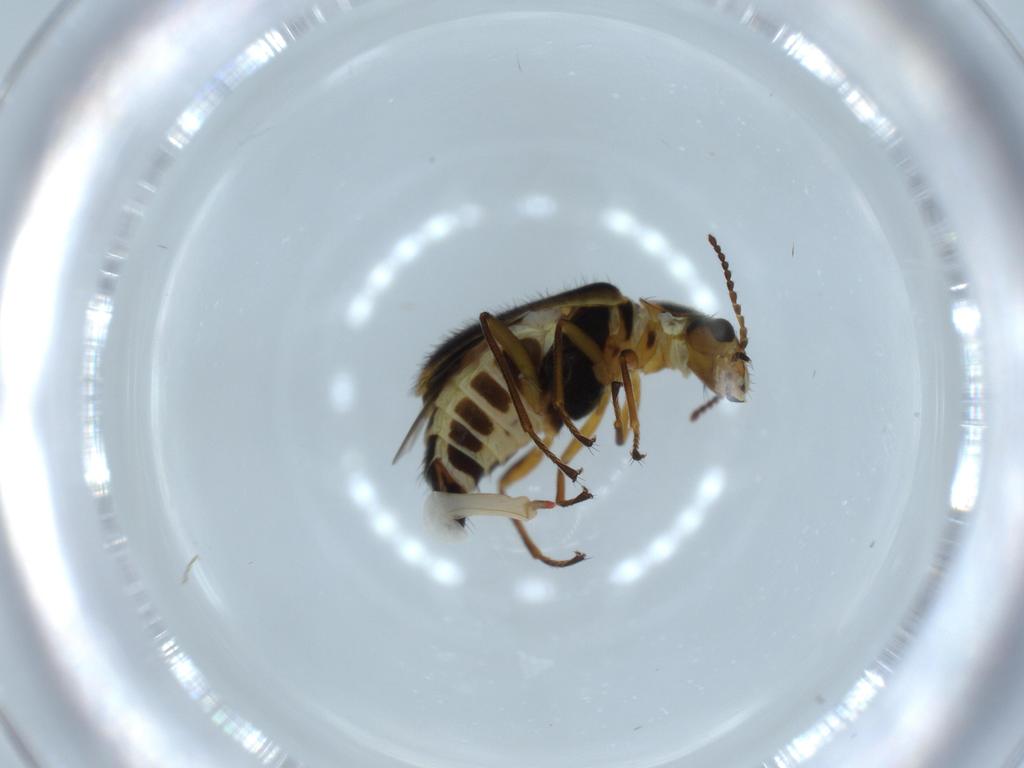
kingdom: Animalia
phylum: Arthropoda
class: Insecta
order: Coleoptera
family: Melyridae
